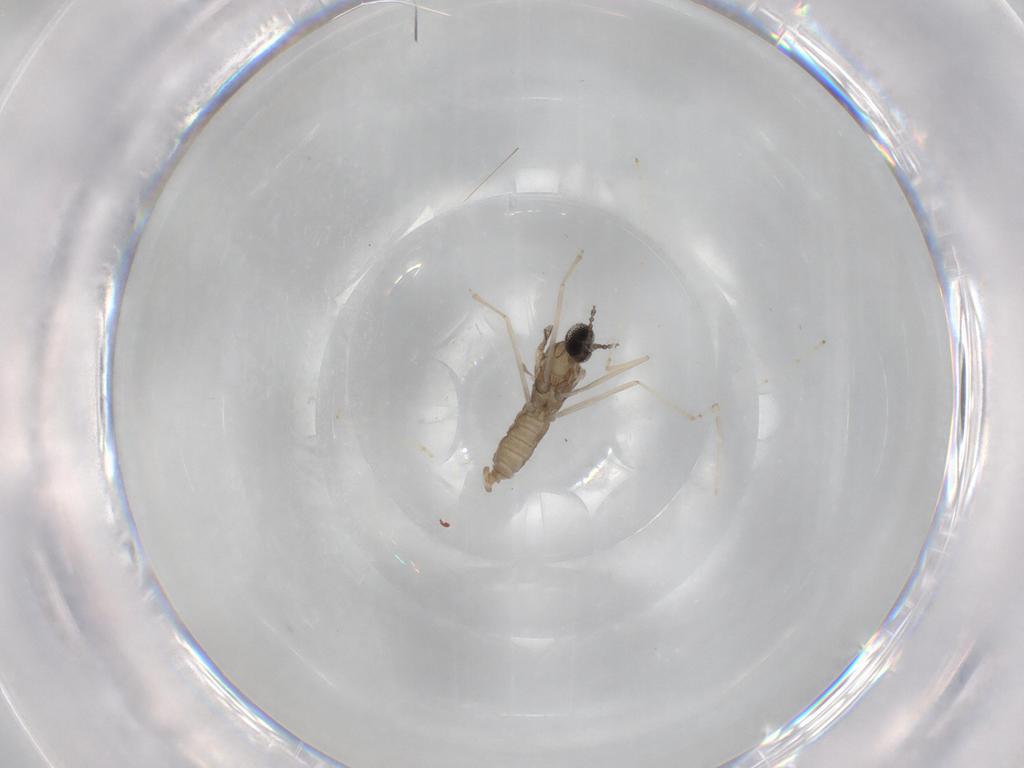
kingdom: Animalia
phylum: Arthropoda
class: Insecta
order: Diptera
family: Cecidomyiidae
